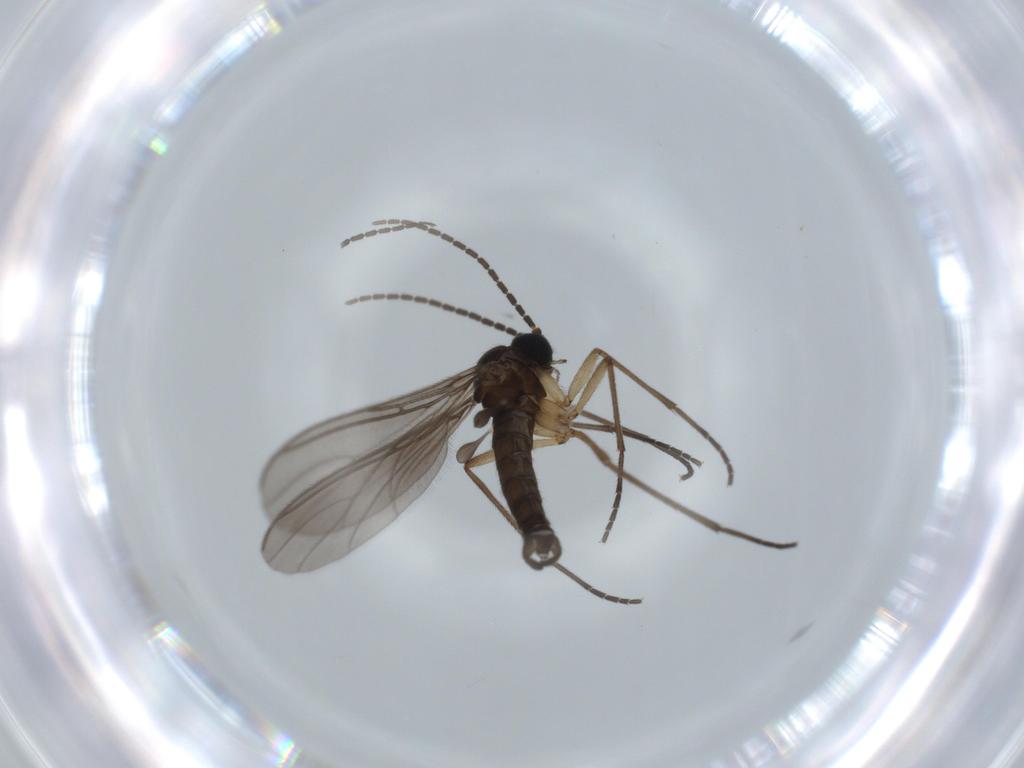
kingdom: Animalia
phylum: Arthropoda
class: Insecta
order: Diptera
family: Sciaridae
